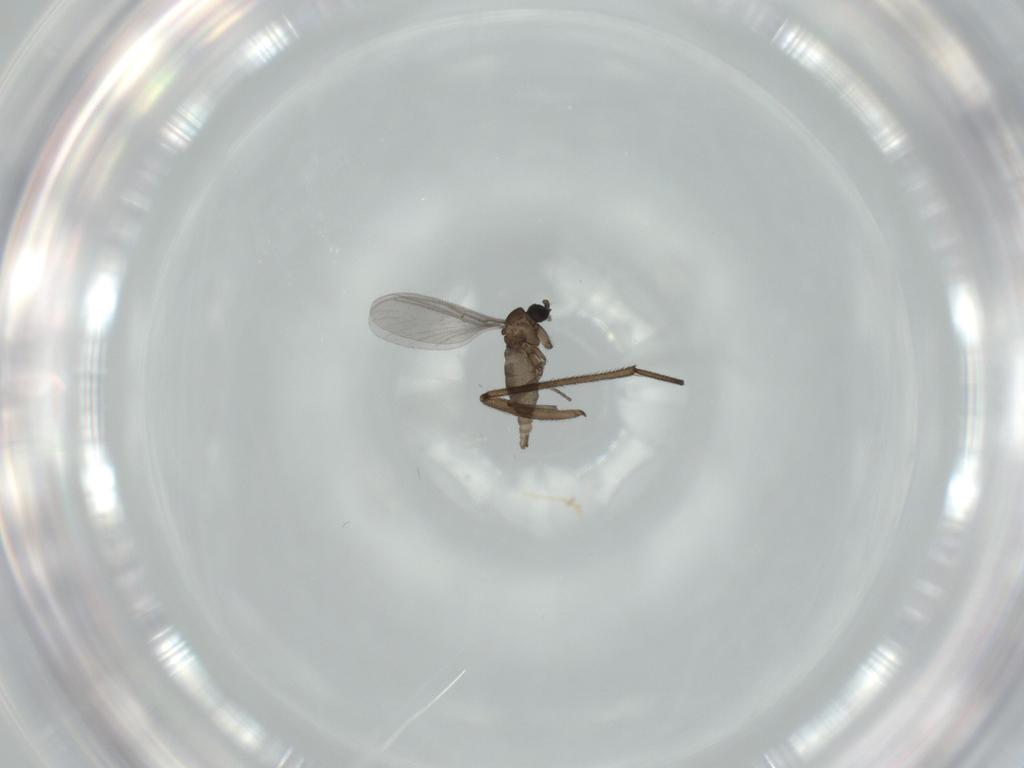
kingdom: Animalia
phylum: Arthropoda
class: Insecta
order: Diptera
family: Sciaridae
